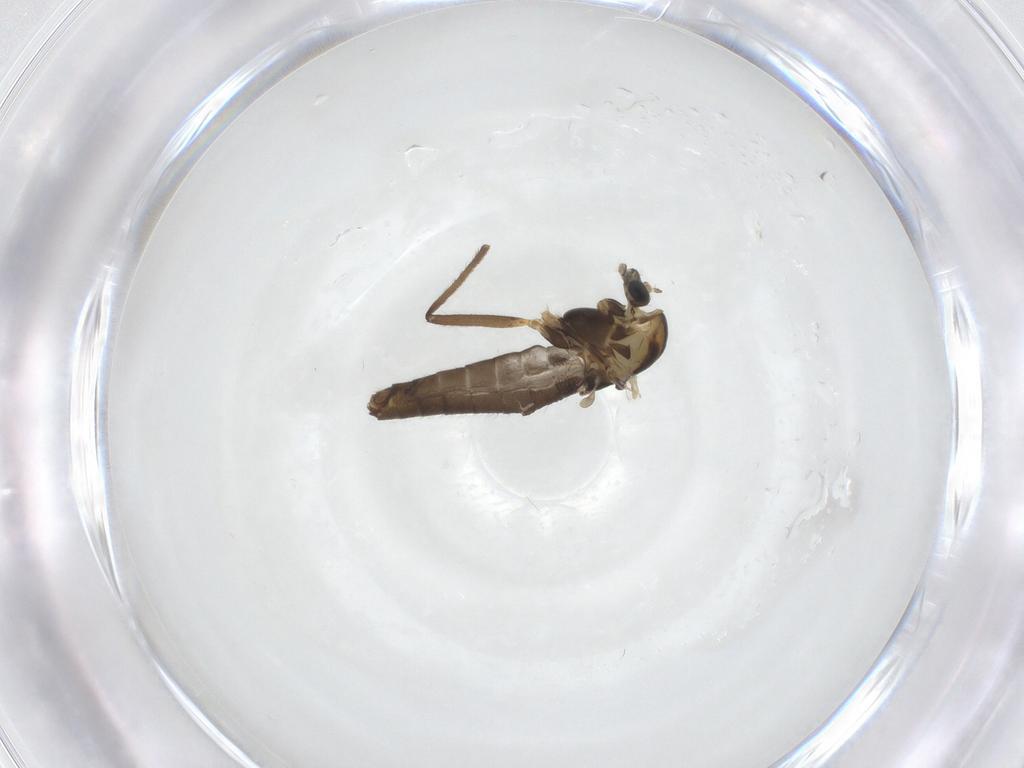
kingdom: Animalia
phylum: Arthropoda
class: Insecta
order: Diptera
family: Chironomidae
